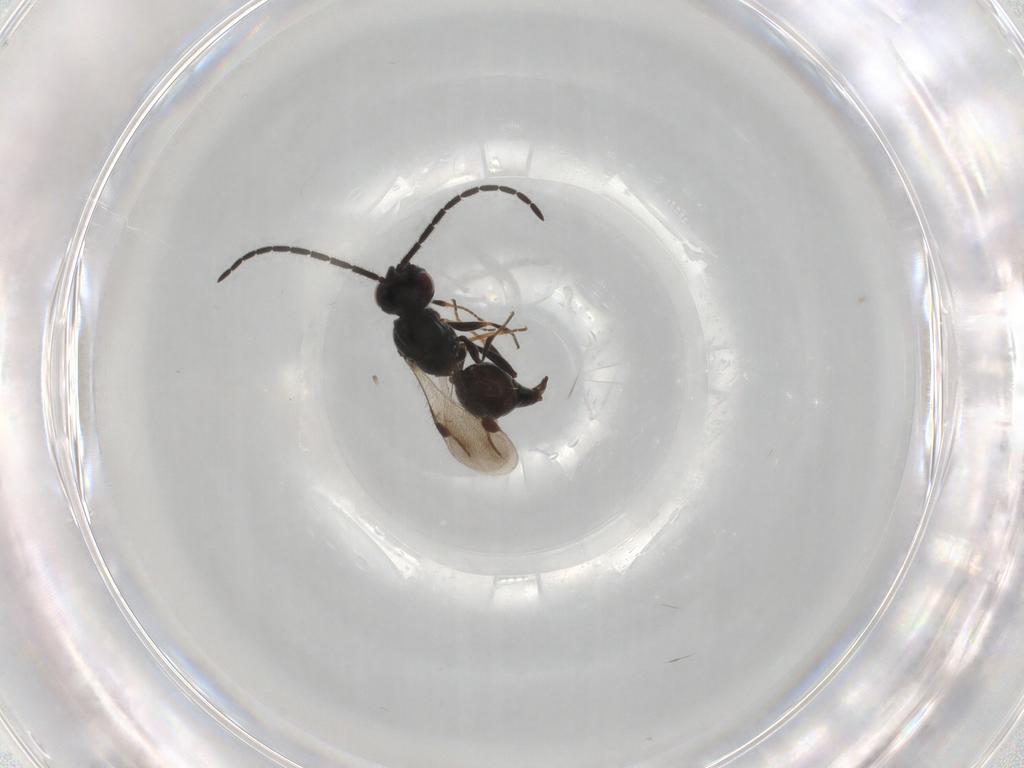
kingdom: Animalia
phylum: Arthropoda
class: Insecta
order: Hymenoptera
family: Megaspilidae
